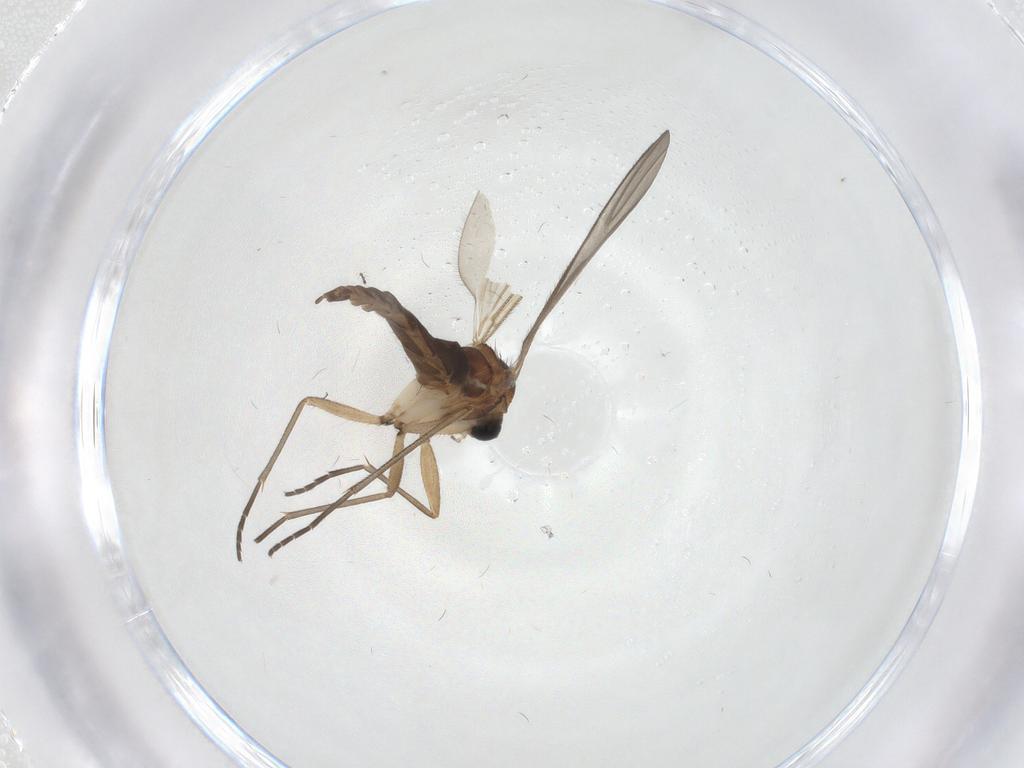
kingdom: Animalia
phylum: Arthropoda
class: Insecta
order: Diptera
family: Sciaridae
